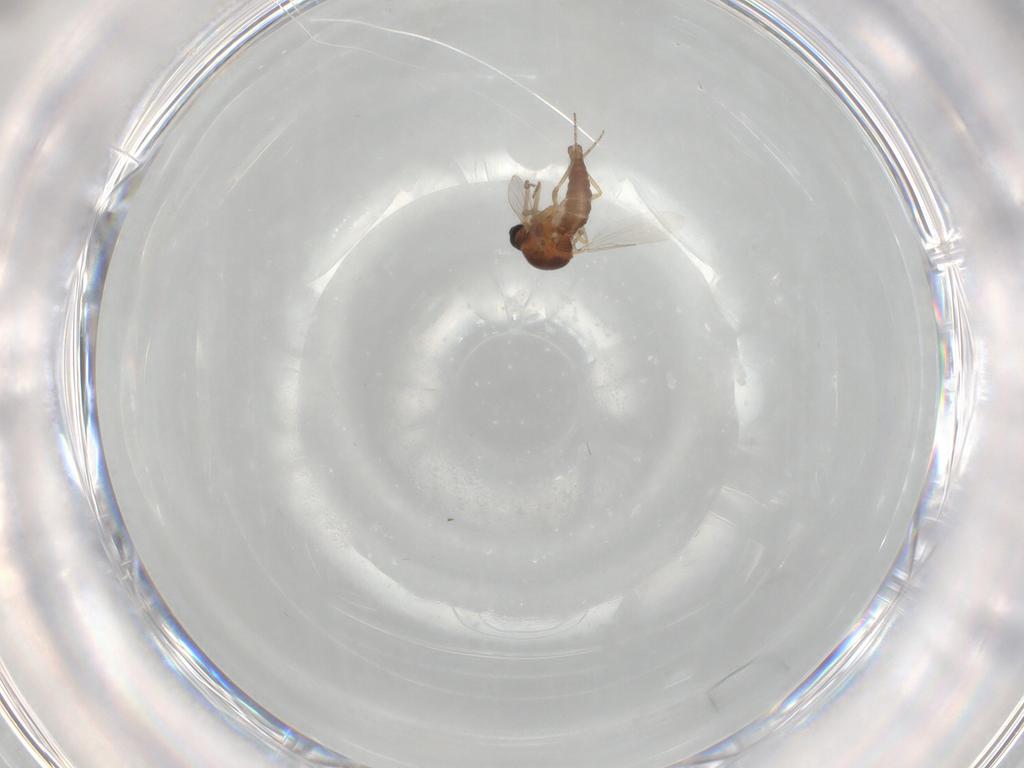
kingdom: Animalia
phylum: Arthropoda
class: Insecta
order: Diptera
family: Ceratopogonidae
